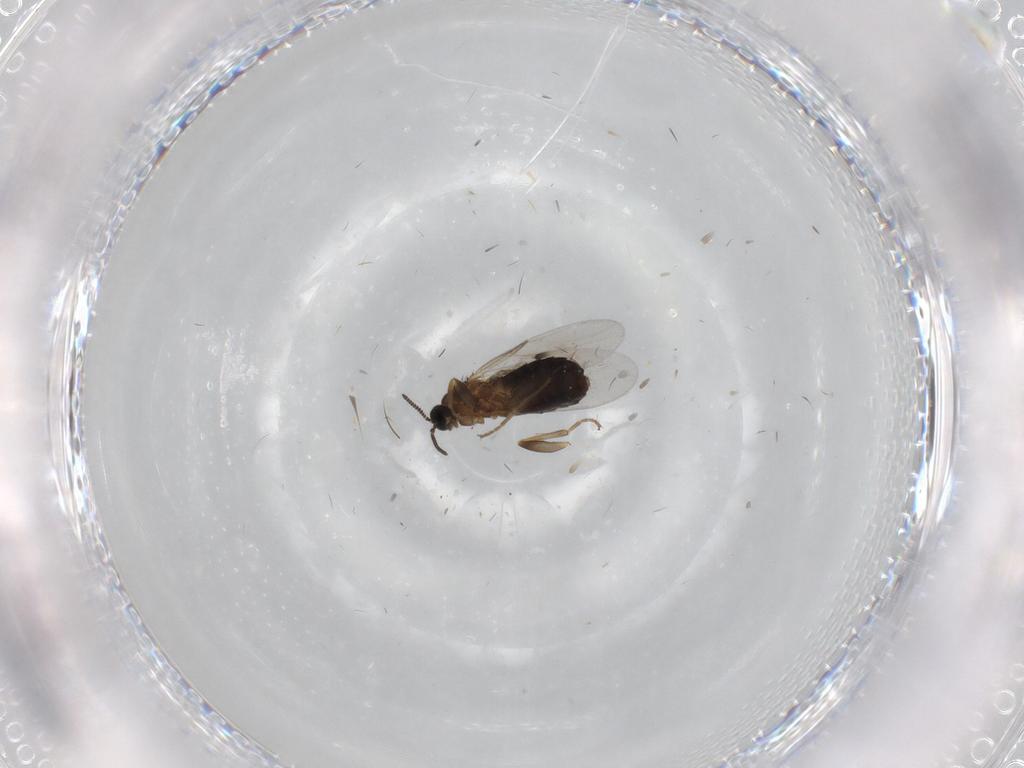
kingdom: Animalia
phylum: Arthropoda
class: Insecta
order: Diptera
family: Scatopsidae
